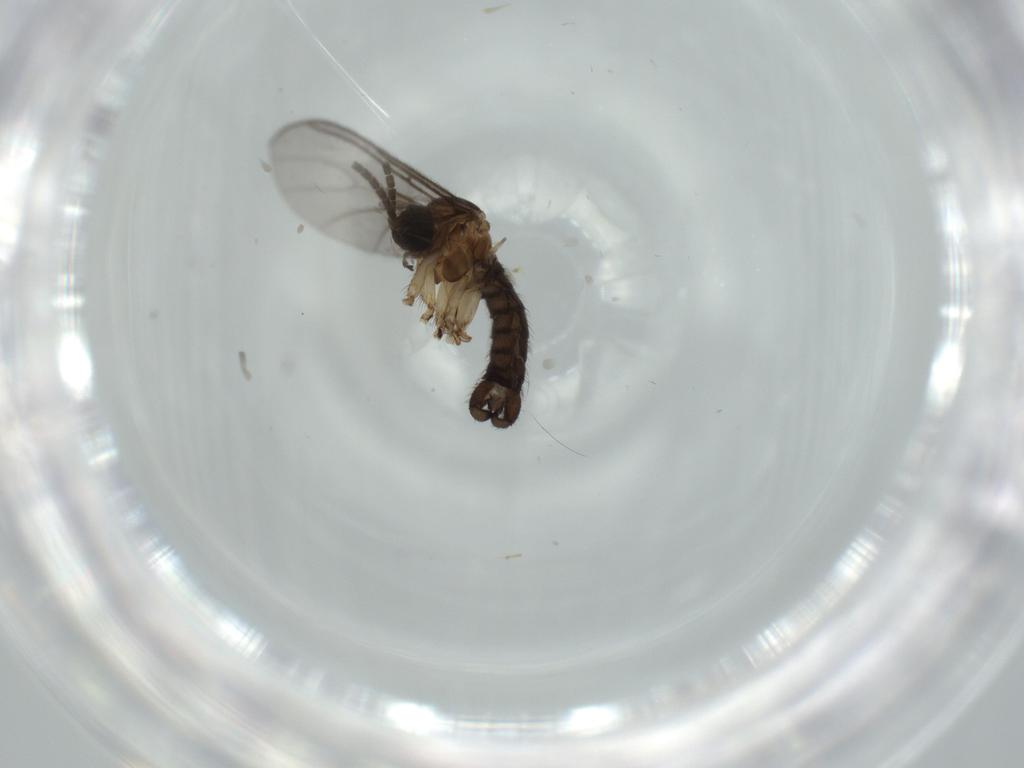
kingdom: Animalia
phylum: Arthropoda
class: Insecta
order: Diptera
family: Sciaridae
